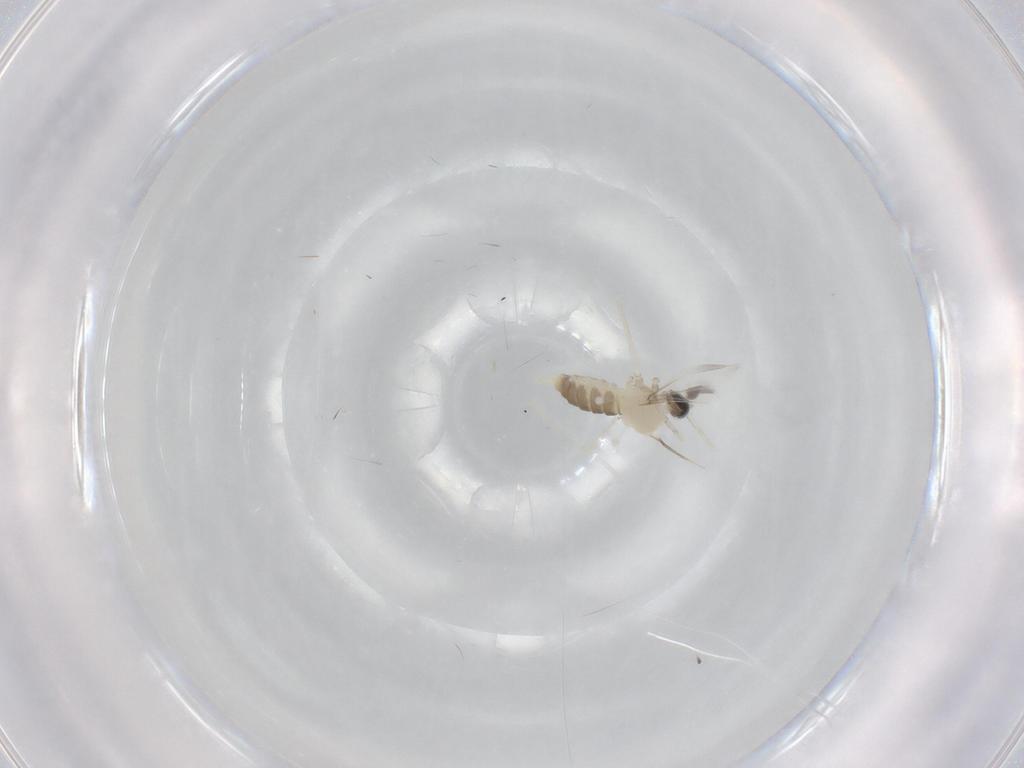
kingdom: Animalia
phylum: Arthropoda
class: Insecta
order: Diptera
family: Cecidomyiidae
